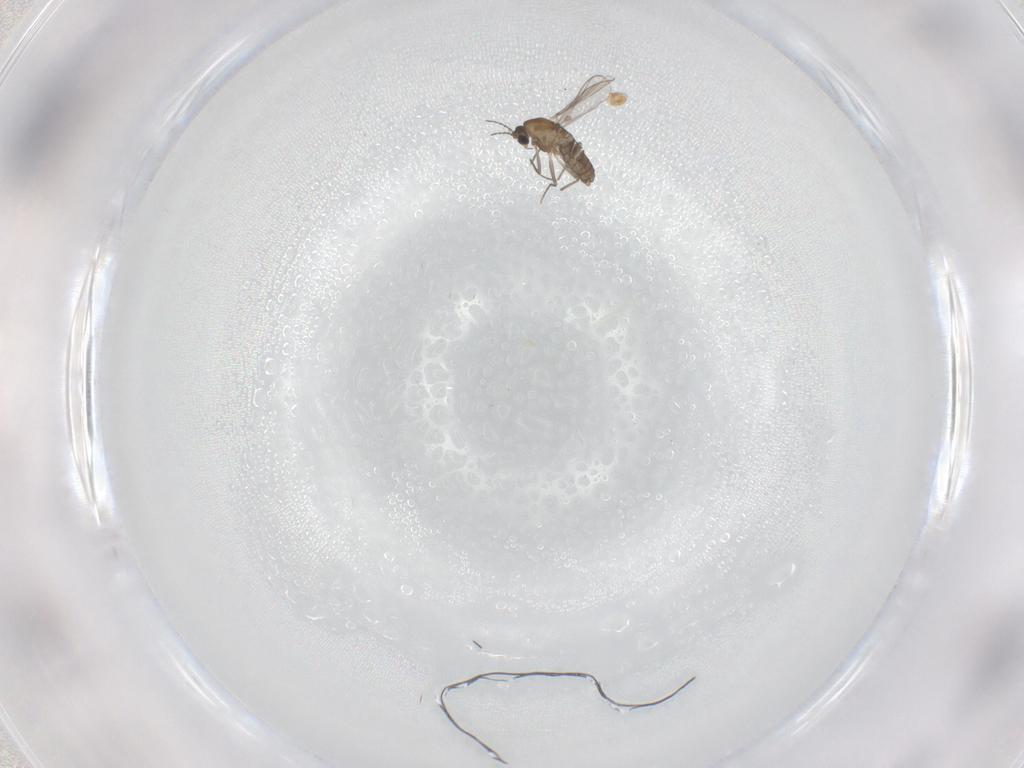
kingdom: Animalia
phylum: Arthropoda
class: Insecta
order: Diptera
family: Chironomidae
